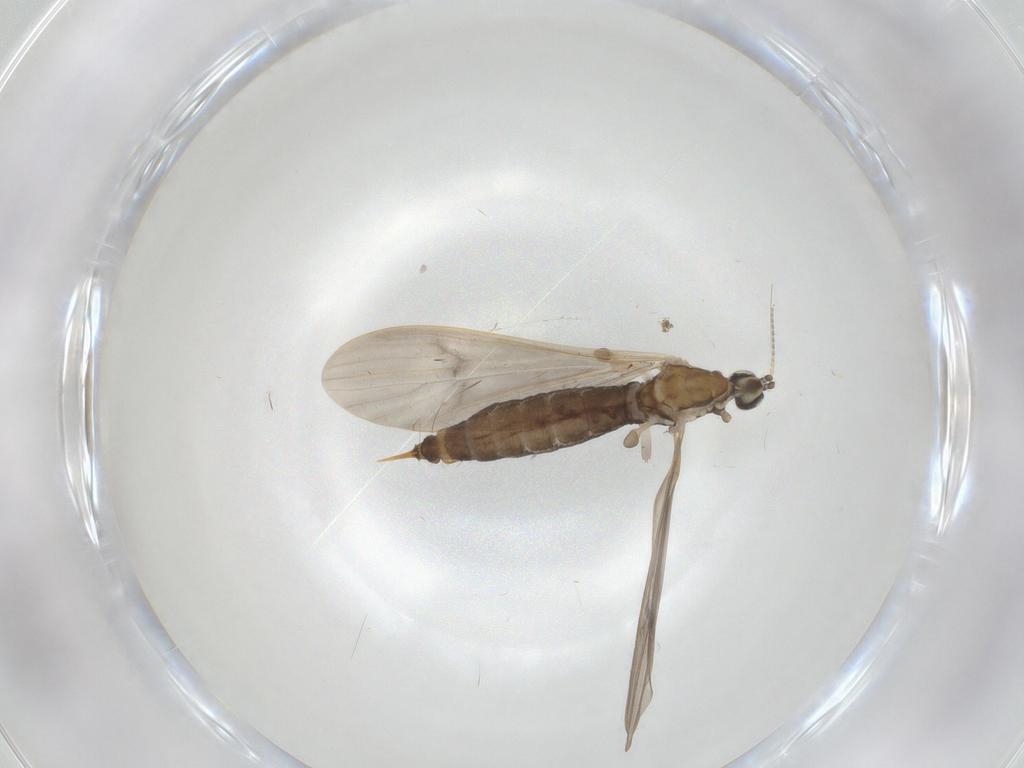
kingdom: Animalia
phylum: Arthropoda
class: Insecta
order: Diptera
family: Limoniidae
